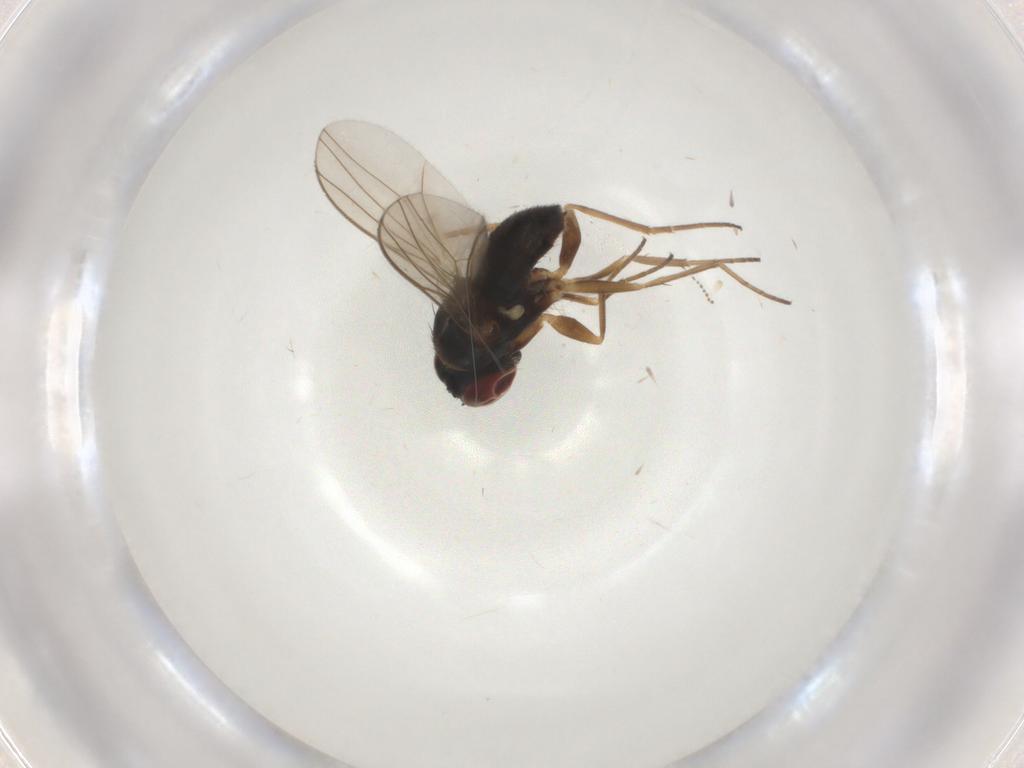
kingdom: Animalia
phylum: Arthropoda
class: Insecta
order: Diptera
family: Dolichopodidae
